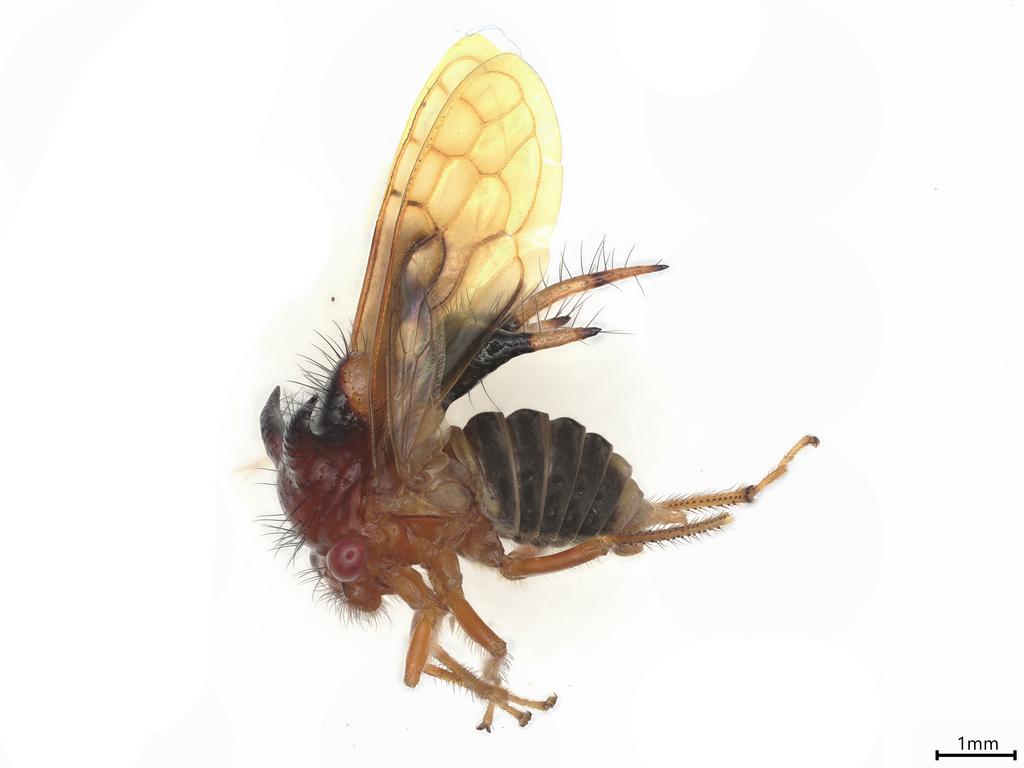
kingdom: Animalia
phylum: Arthropoda
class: Insecta
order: Hymenoptera
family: Pteromalidae
